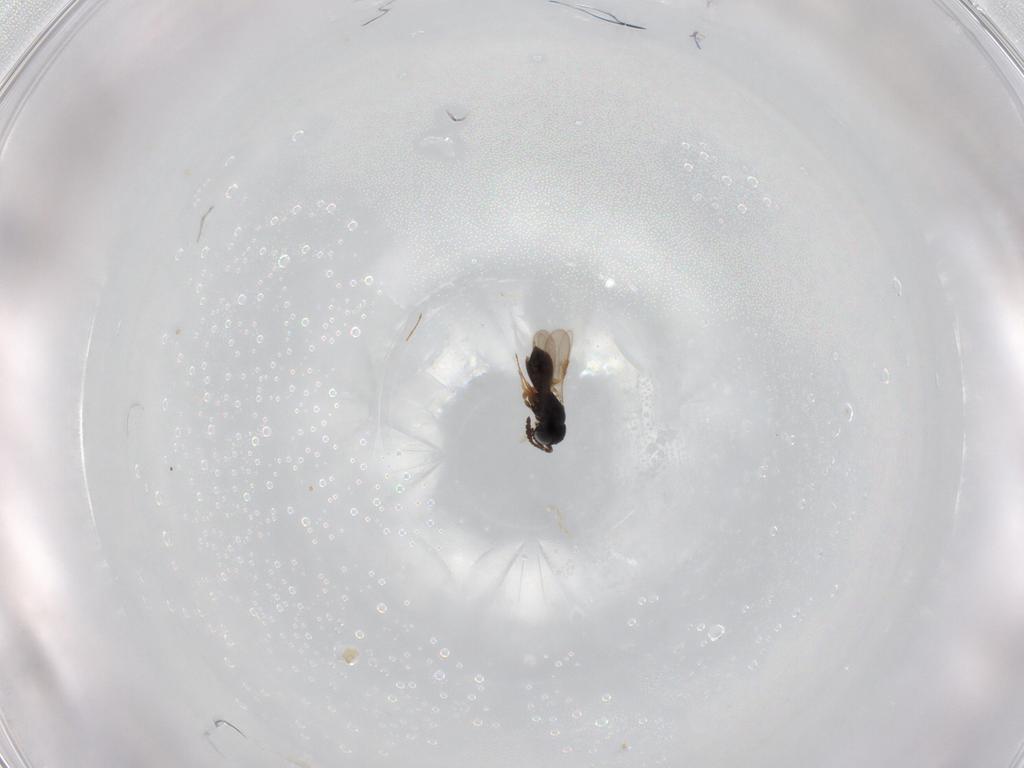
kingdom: Animalia
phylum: Arthropoda
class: Insecta
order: Hymenoptera
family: Scelionidae
